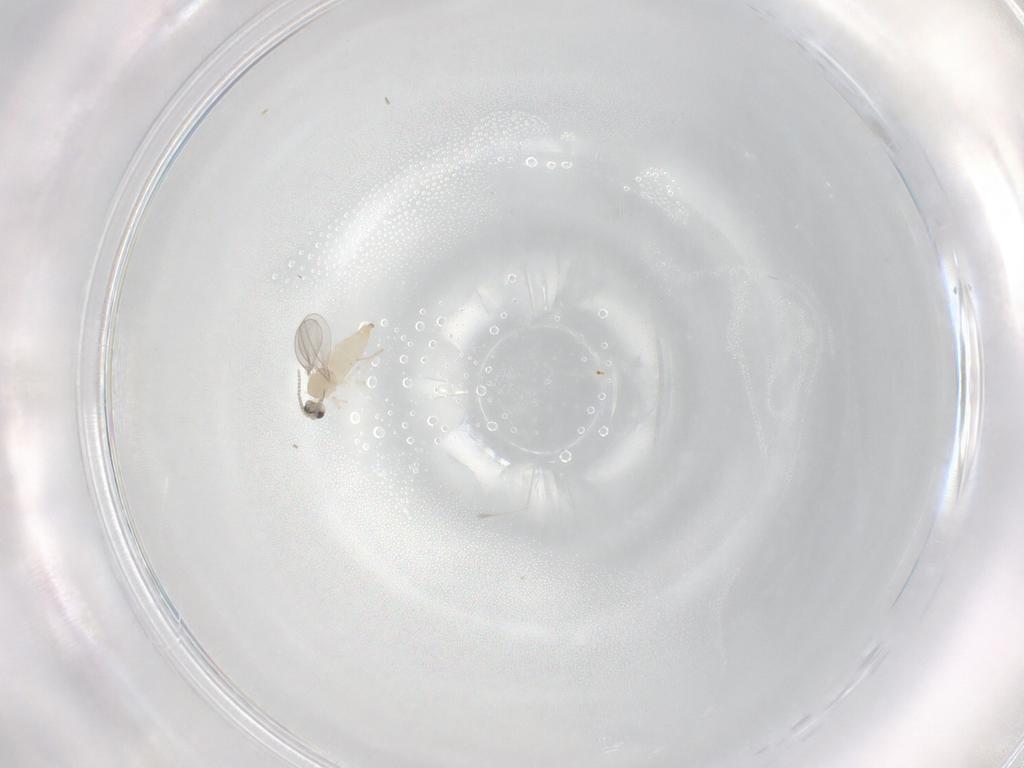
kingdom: Animalia
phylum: Arthropoda
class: Insecta
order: Diptera
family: Cecidomyiidae
